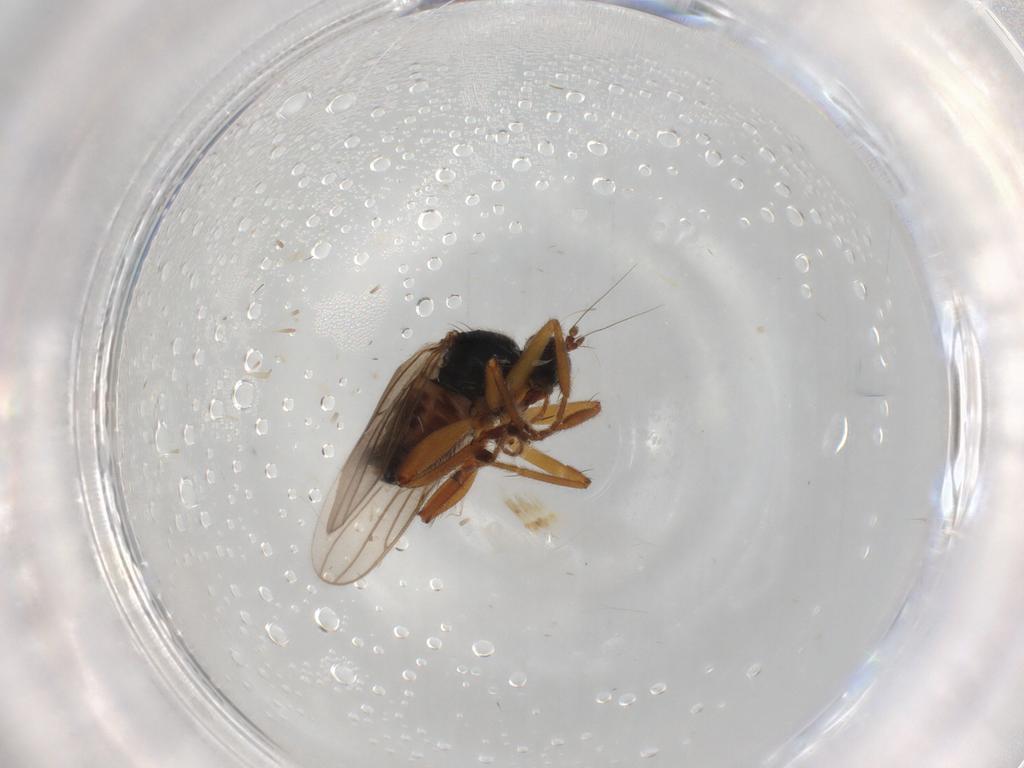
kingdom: Animalia
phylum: Arthropoda
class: Insecta
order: Diptera
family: Hybotidae
